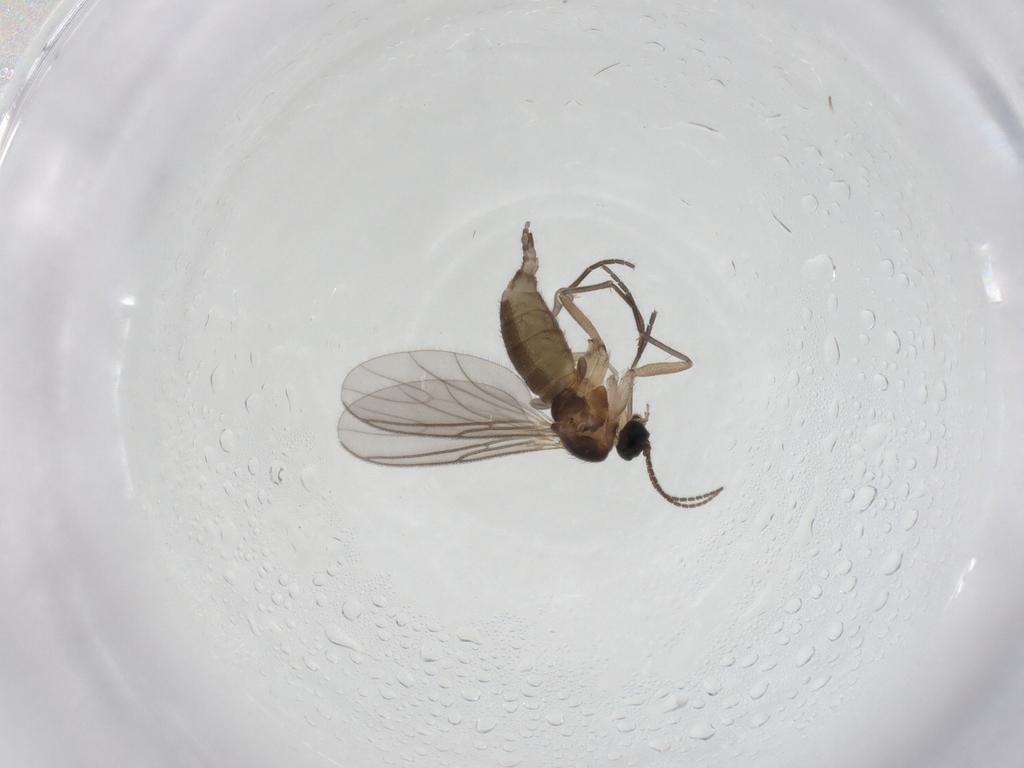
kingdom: Animalia
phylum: Arthropoda
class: Insecta
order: Diptera
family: Sciaridae
